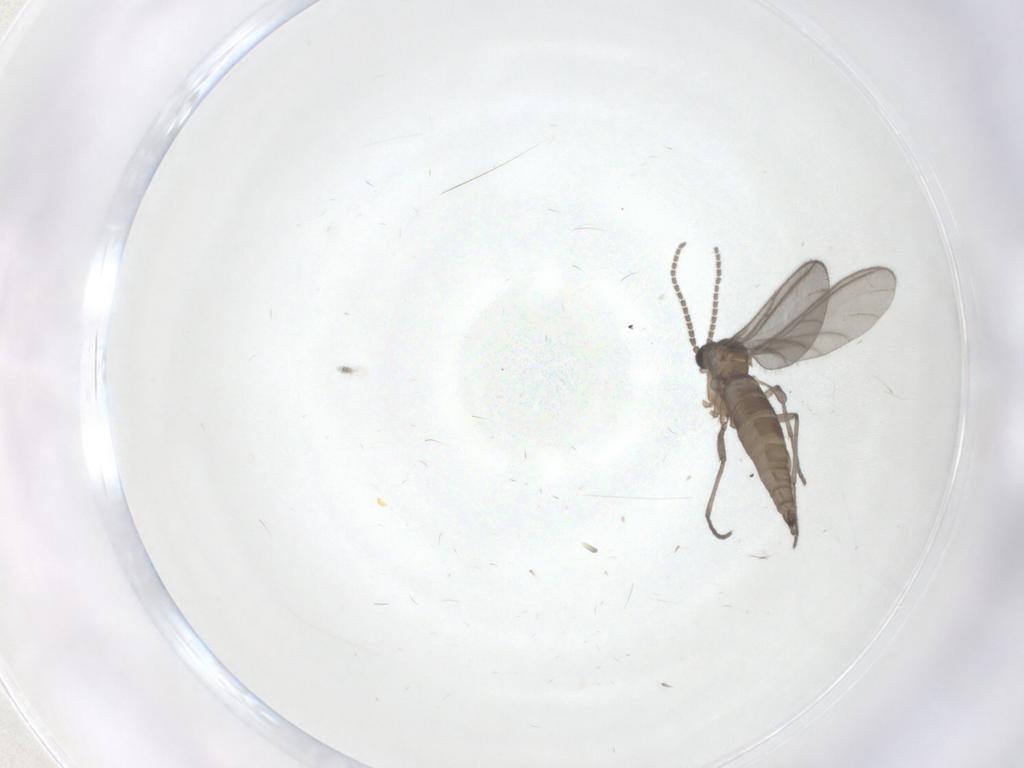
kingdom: Animalia
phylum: Arthropoda
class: Insecta
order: Diptera
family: Sciaridae
